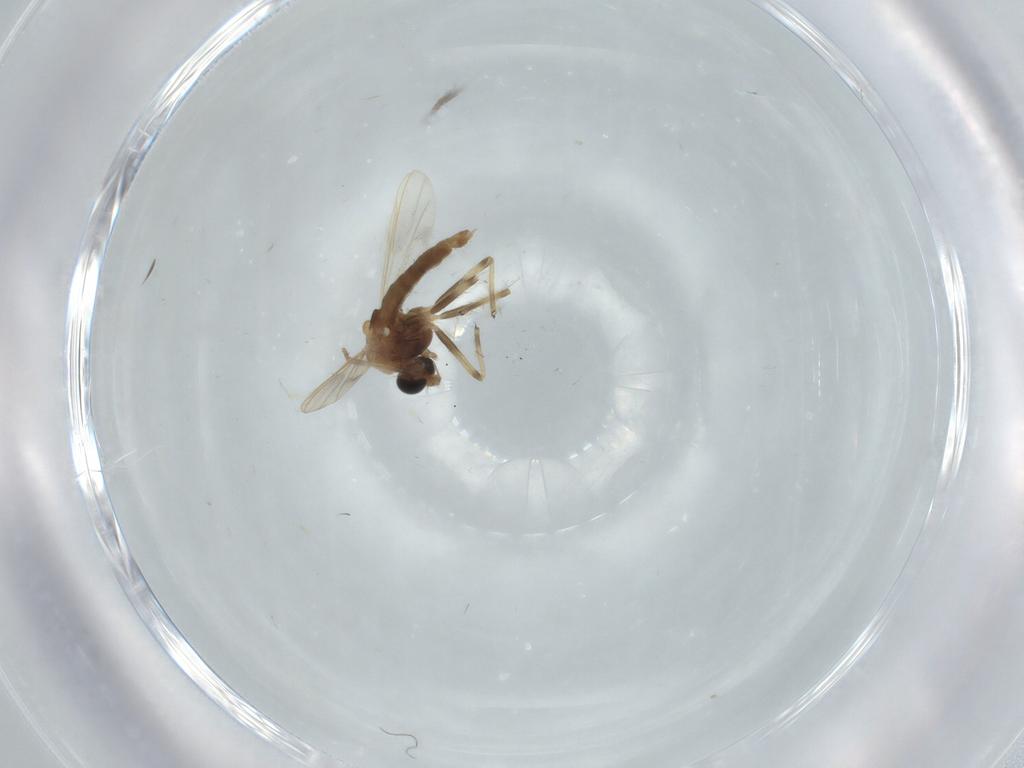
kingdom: Animalia
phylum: Arthropoda
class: Insecta
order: Diptera
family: Chironomidae
